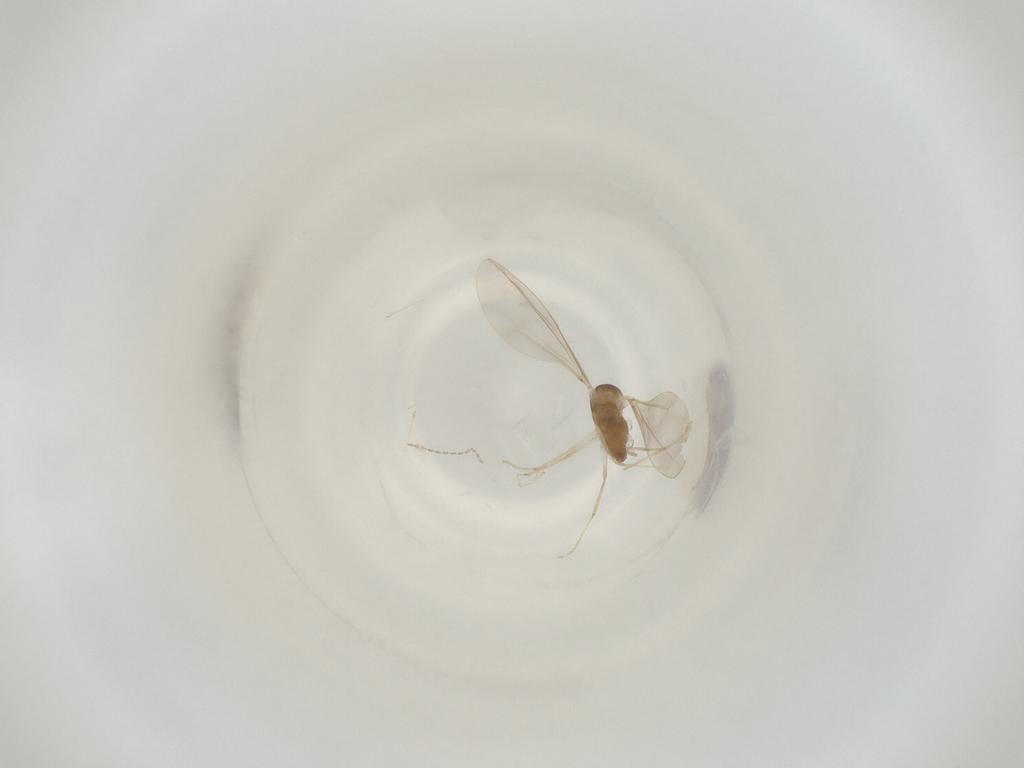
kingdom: Animalia
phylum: Arthropoda
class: Insecta
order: Diptera
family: Cecidomyiidae
